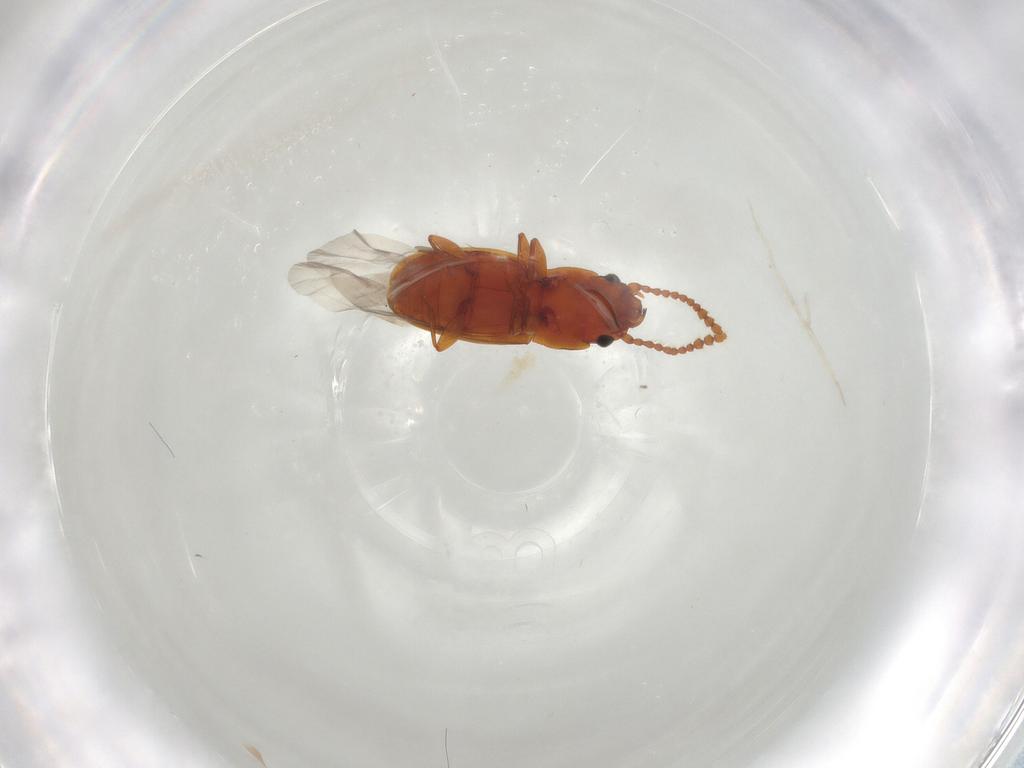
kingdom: Animalia
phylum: Arthropoda
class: Insecta
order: Coleoptera
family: Laemophloeidae
